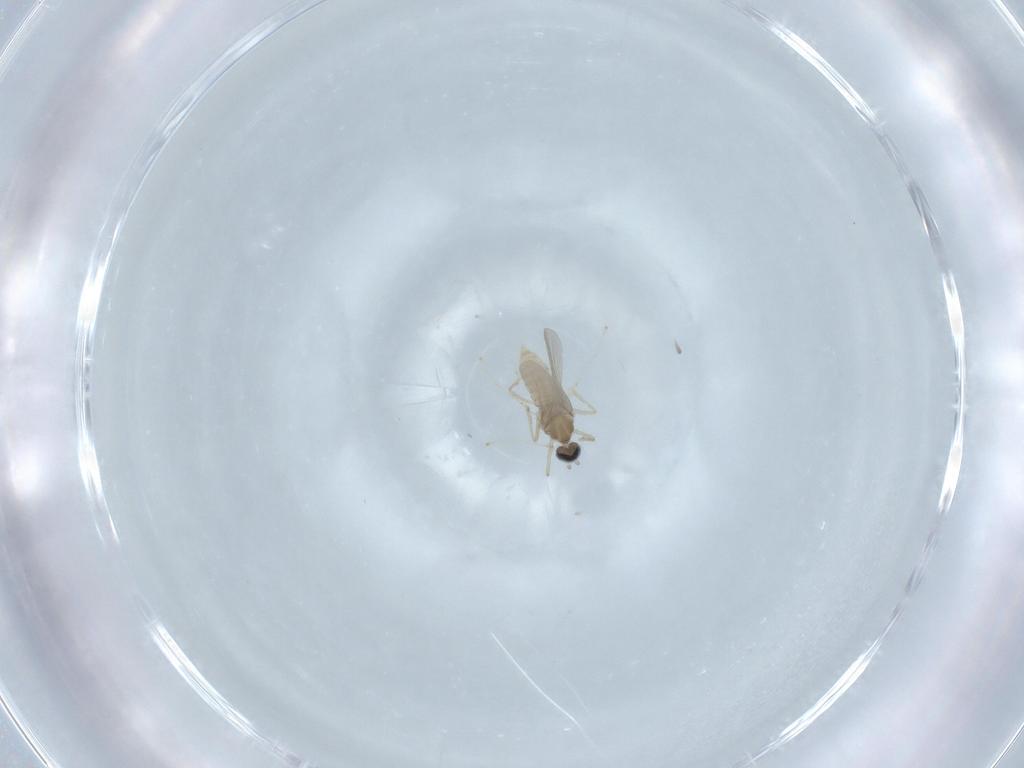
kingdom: Animalia
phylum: Arthropoda
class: Insecta
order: Diptera
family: Cecidomyiidae
